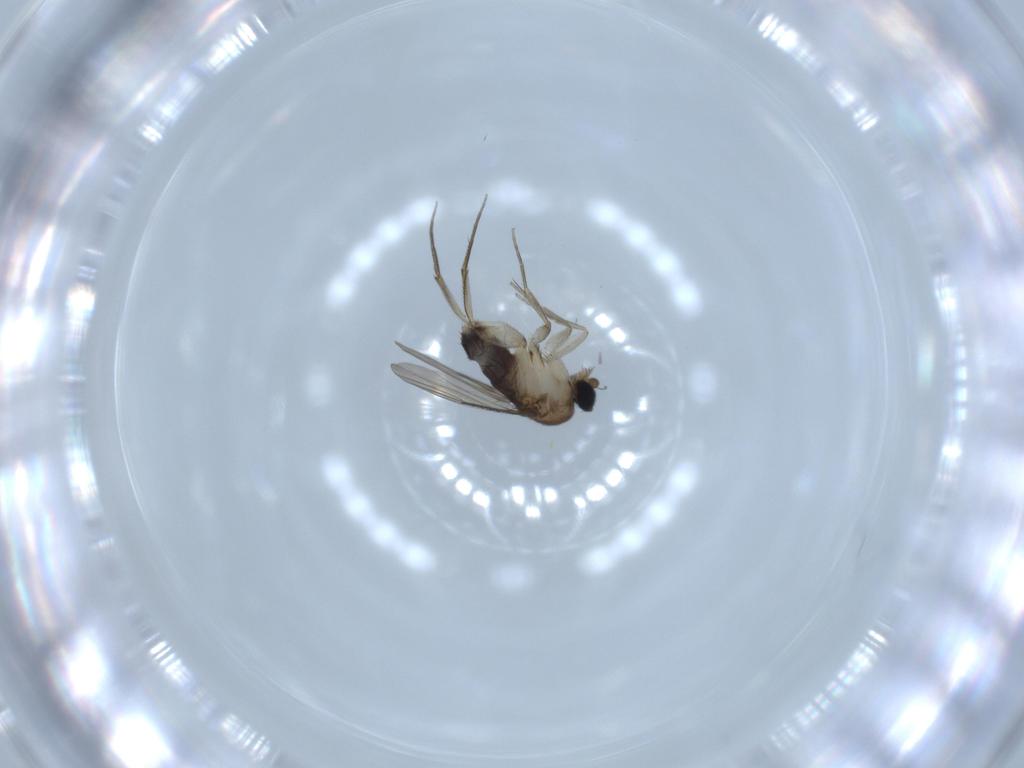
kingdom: Animalia
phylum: Arthropoda
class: Insecta
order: Diptera
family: Phoridae
